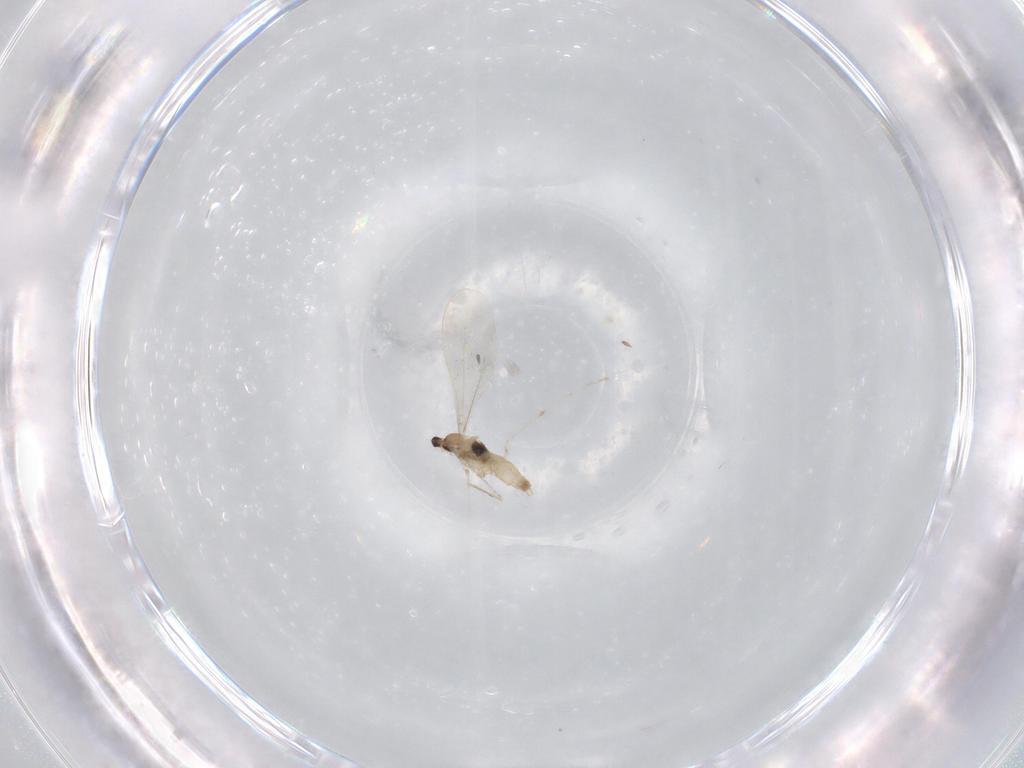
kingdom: Animalia
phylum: Arthropoda
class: Insecta
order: Diptera
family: Cecidomyiidae
